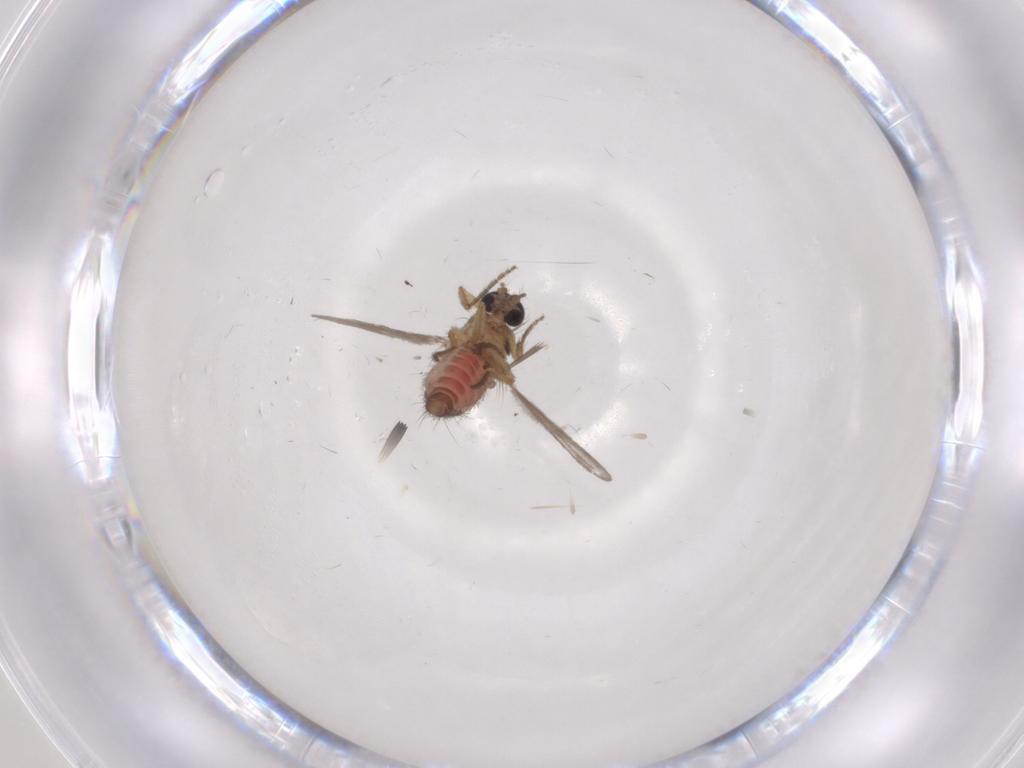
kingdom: Animalia
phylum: Arthropoda
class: Insecta
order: Diptera
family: Ceratopogonidae
